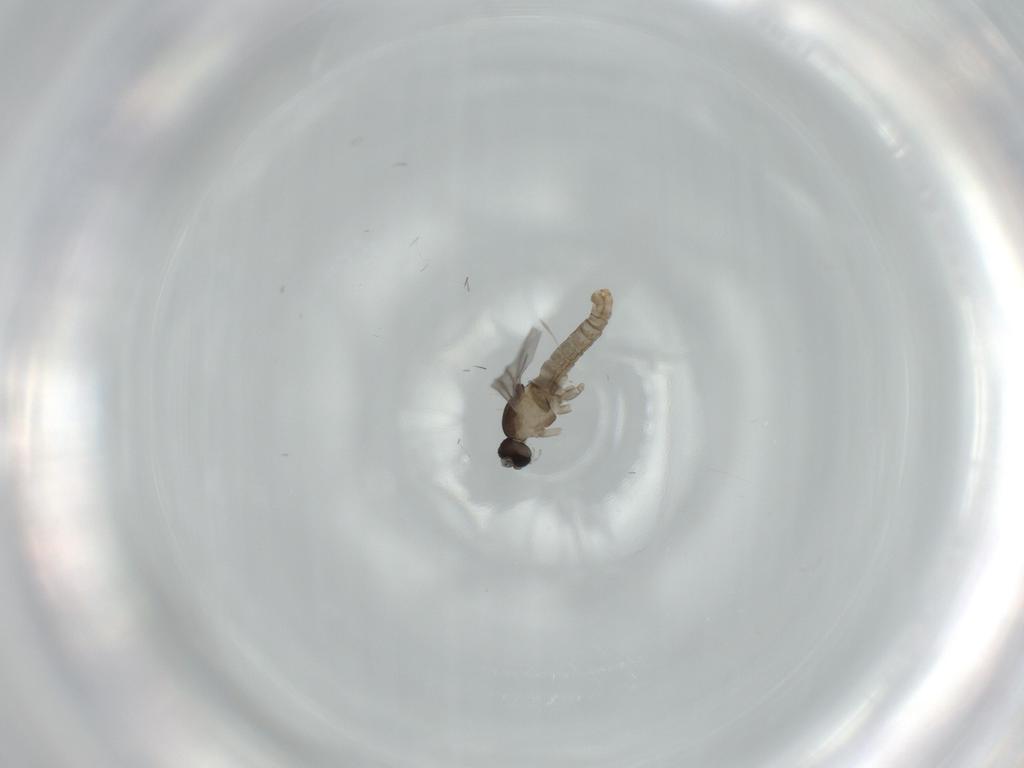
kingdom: Animalia
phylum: Arthropoda
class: Insecta
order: Diptera
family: Cecidomyiidae
